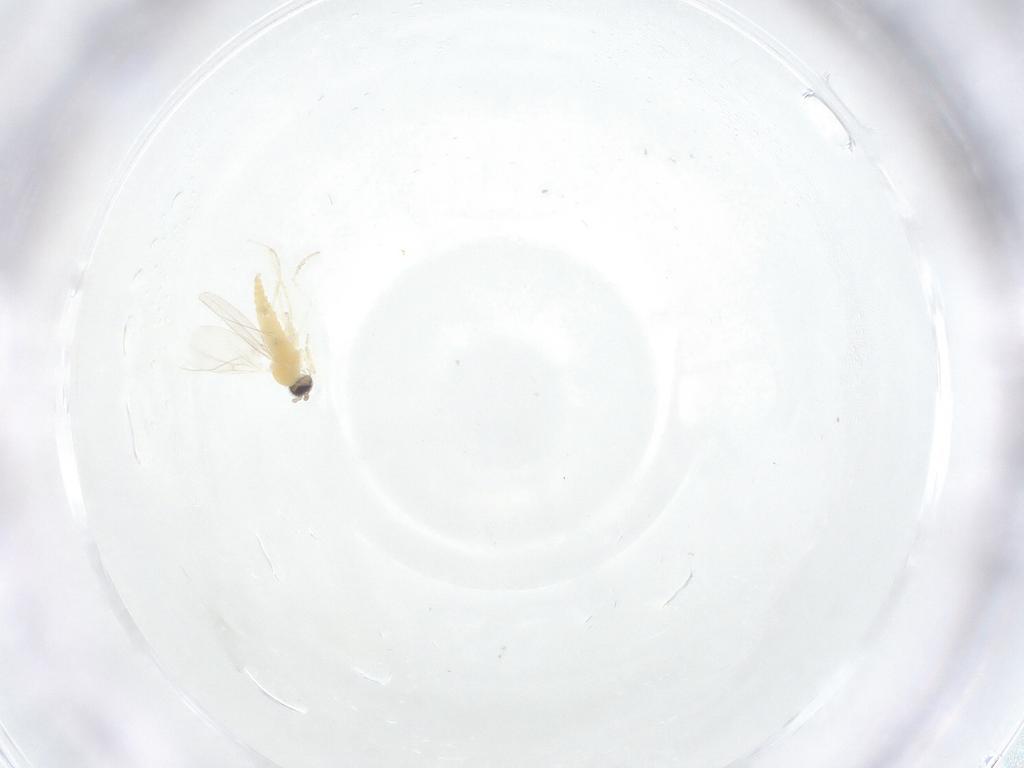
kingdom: Animalia
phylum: Arthropoda
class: Insecta
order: Diptera
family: Cecidomyiidae
